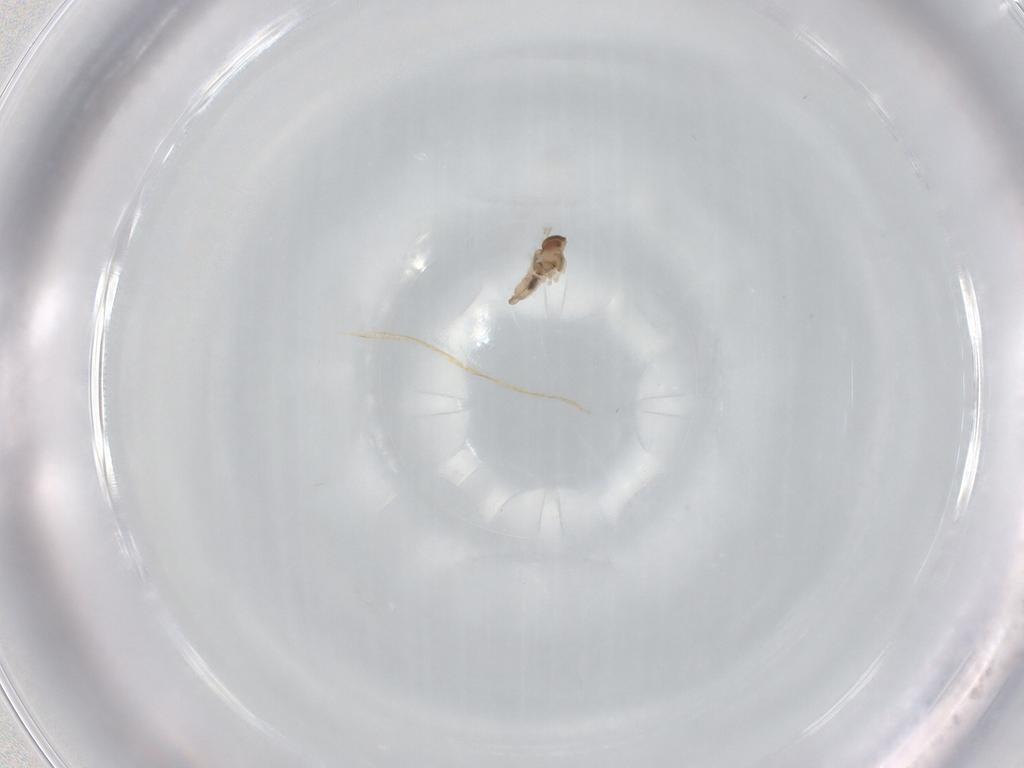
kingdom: Animalia
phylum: Arthropoda
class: Insecta
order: Diptera
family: Cecidomyiidae
